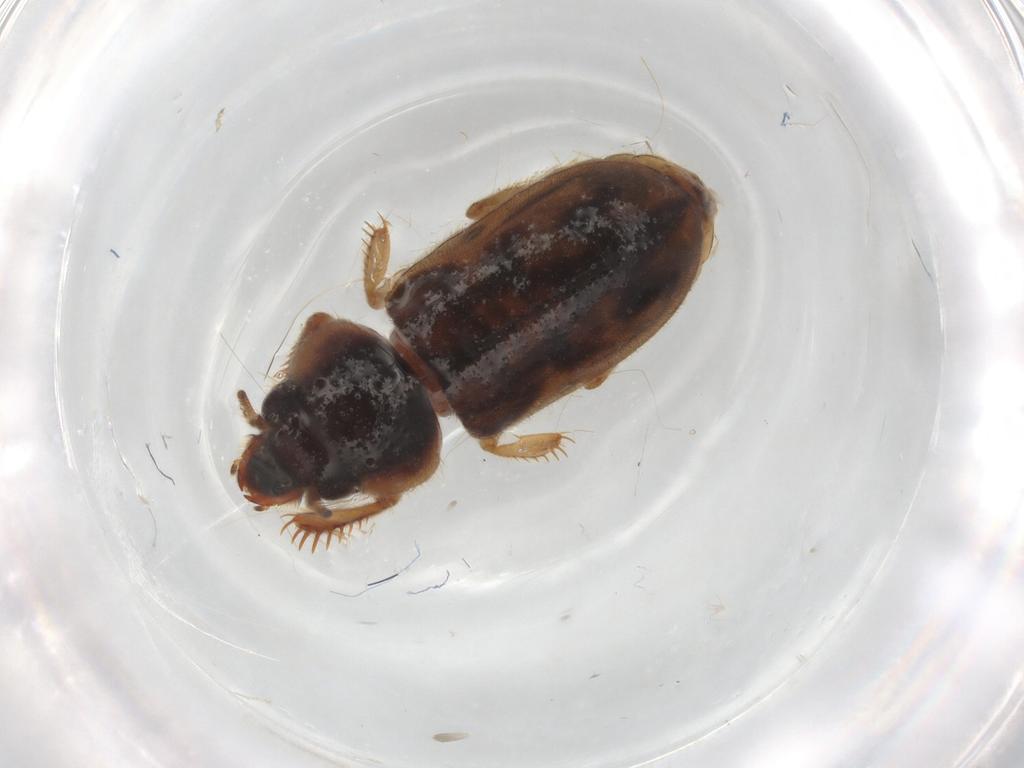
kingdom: Animalia
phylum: Arthropoda
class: Insecta
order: Coleoptera
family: Heteroceridae
